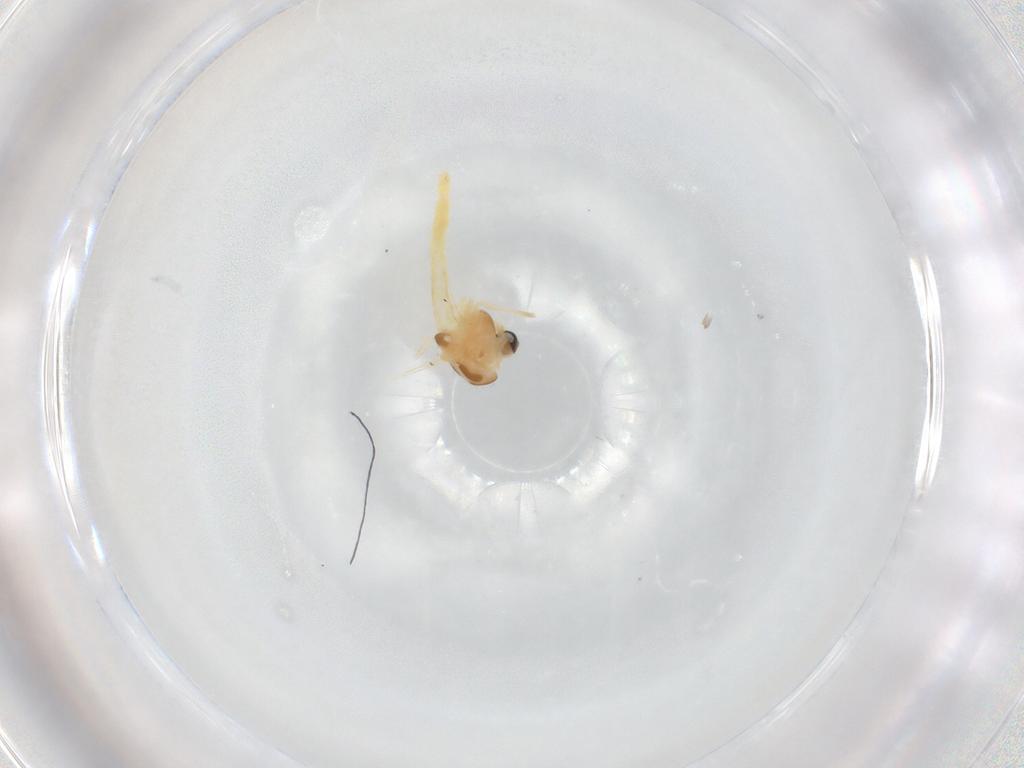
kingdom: Animalia
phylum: Arthropoda
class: Insecta
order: Diptera
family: Chironomidae
